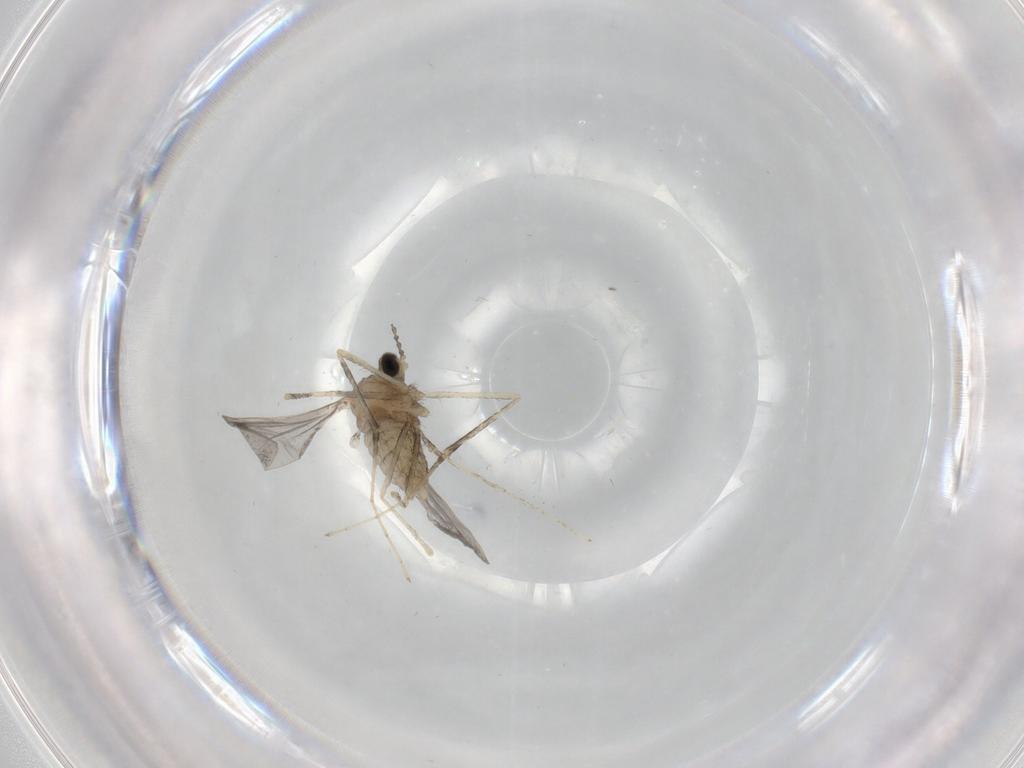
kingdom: Animalia
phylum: Arthropoda
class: Insecta
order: Diptera
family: Cecidomyiidae
